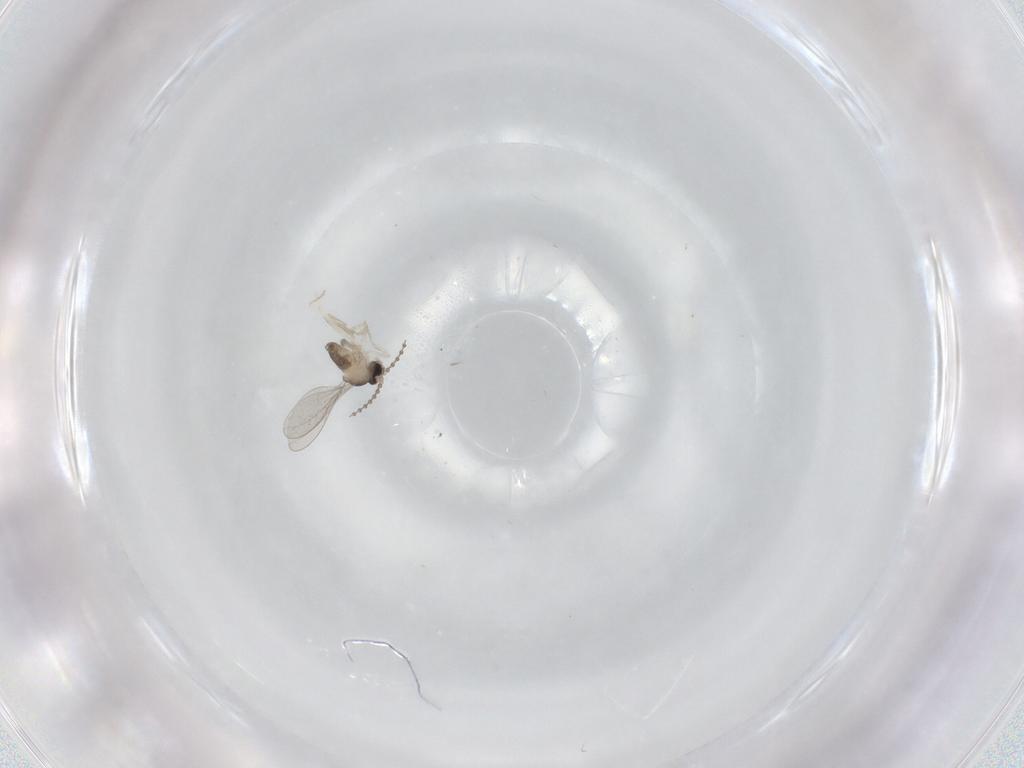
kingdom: Animalia
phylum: Arthropoda
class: Insecta
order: Diptera
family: Cecidomyiidae
